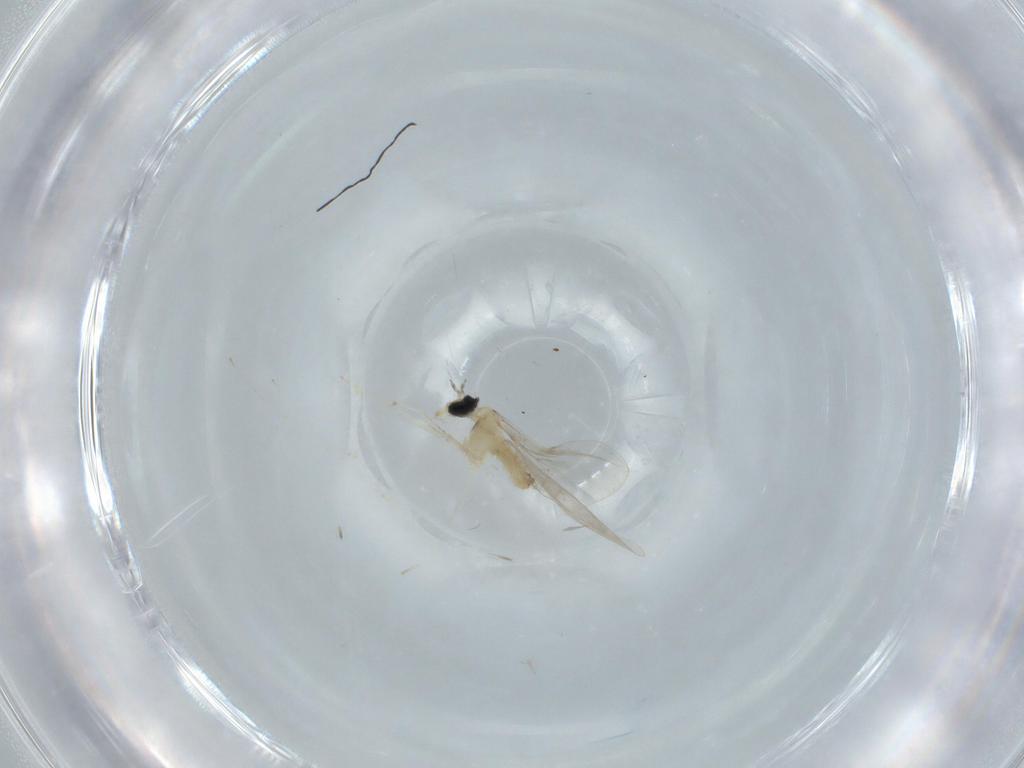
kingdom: Animalia
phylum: Arthropoda
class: Insecta
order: Diptera
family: Cecidomyiidae
